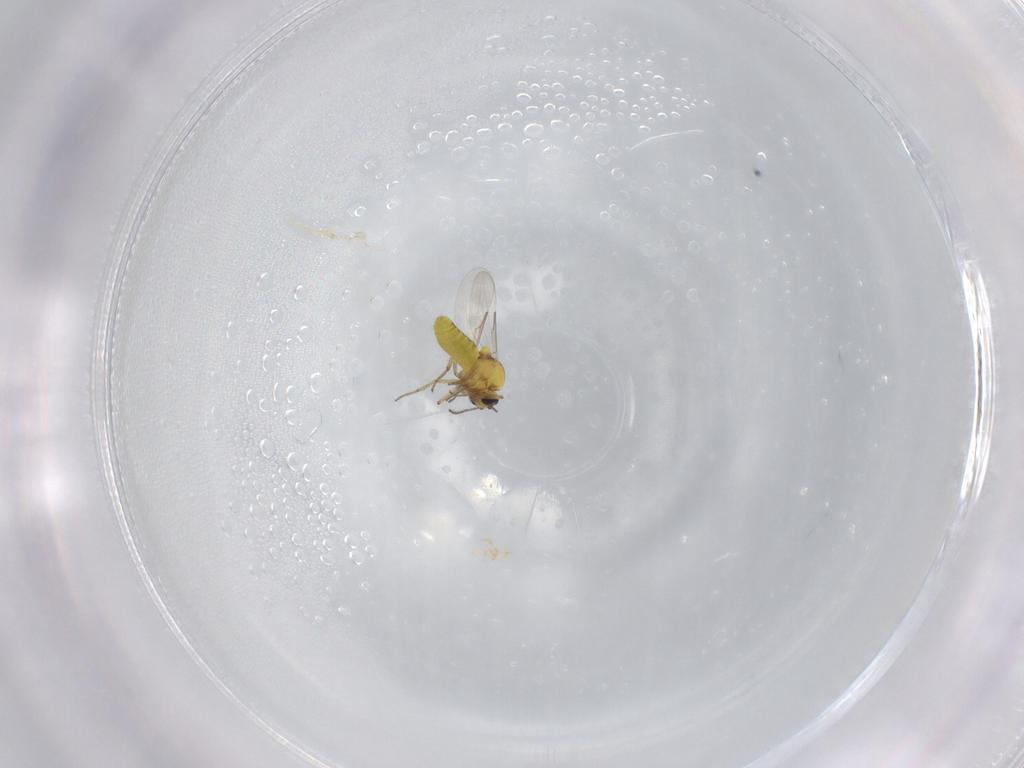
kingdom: Animalia
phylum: Arthropoda
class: Insecta
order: Diptera
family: Ceratopogonidae
